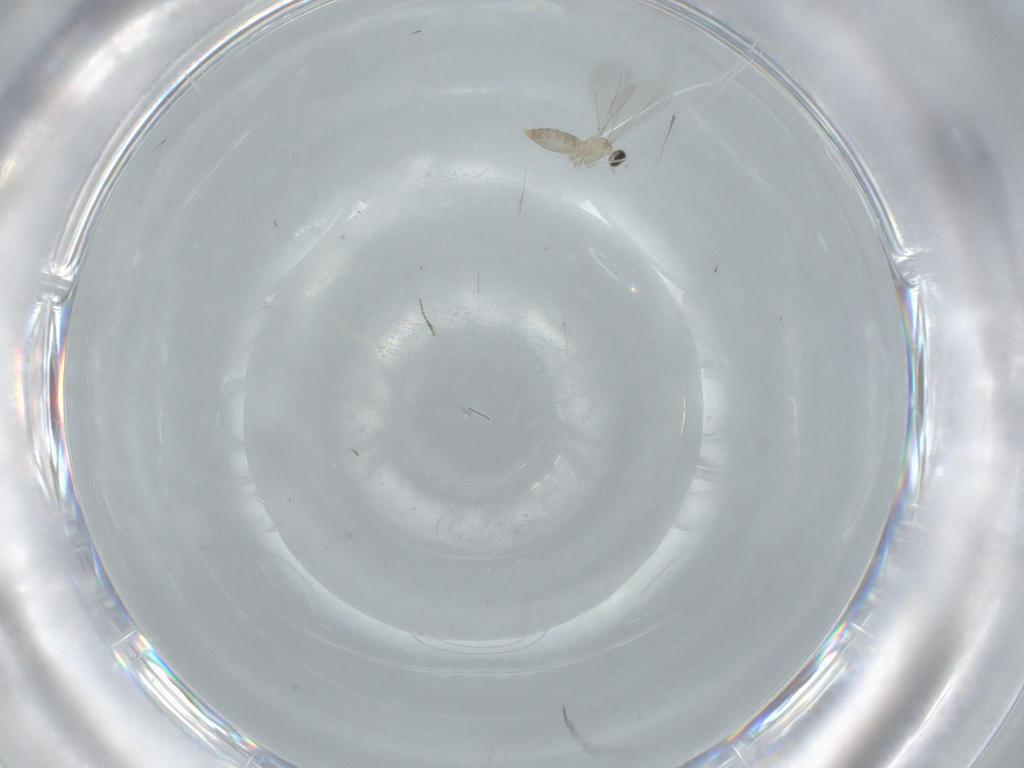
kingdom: Animalia
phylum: Arthropoda
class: Insecta
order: Diptera
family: Cecidomyiidae
